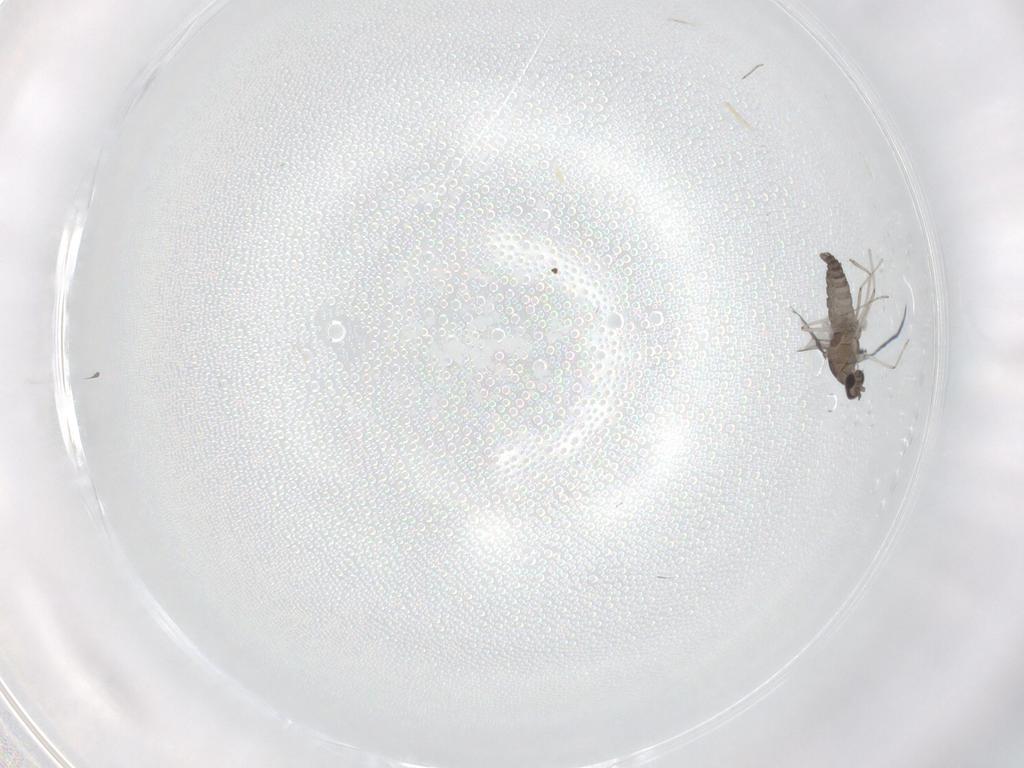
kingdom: Animalia
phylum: Arthropoda
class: Insecta
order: Diptera
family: Cecidomyiidae
